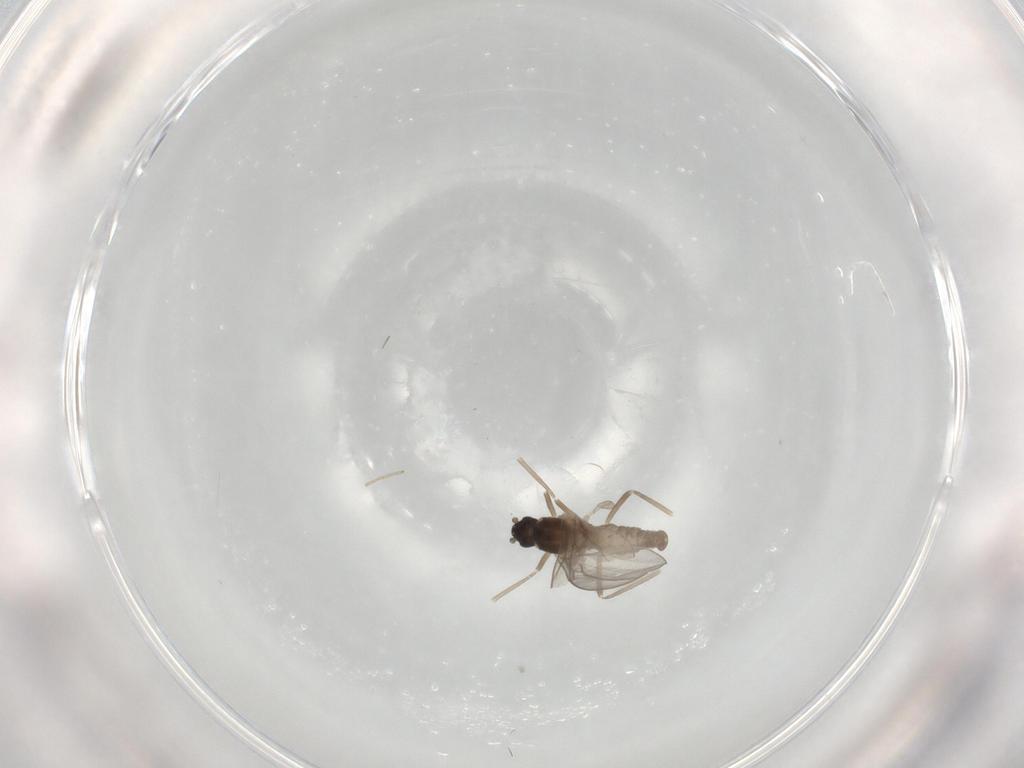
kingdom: Animalia
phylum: Arthropoda
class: Insecta
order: Diptera
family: Cecidomyiidae
